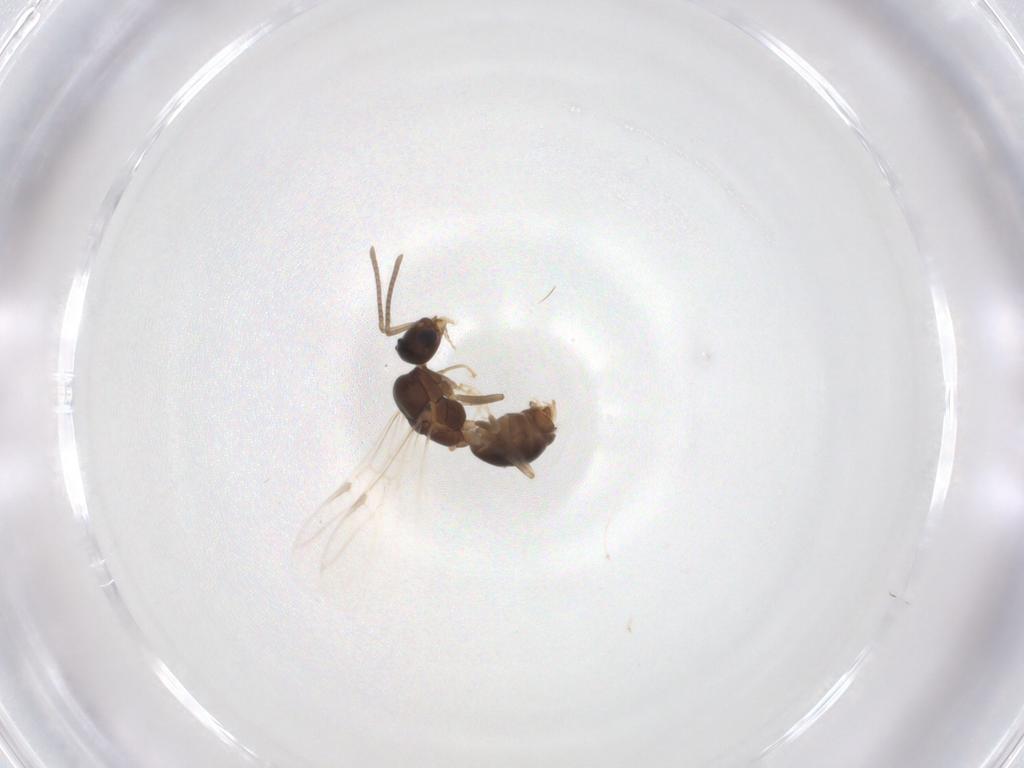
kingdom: Animalia
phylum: Arthropoda
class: Insecta
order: Hymenoptera
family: Formicidae
